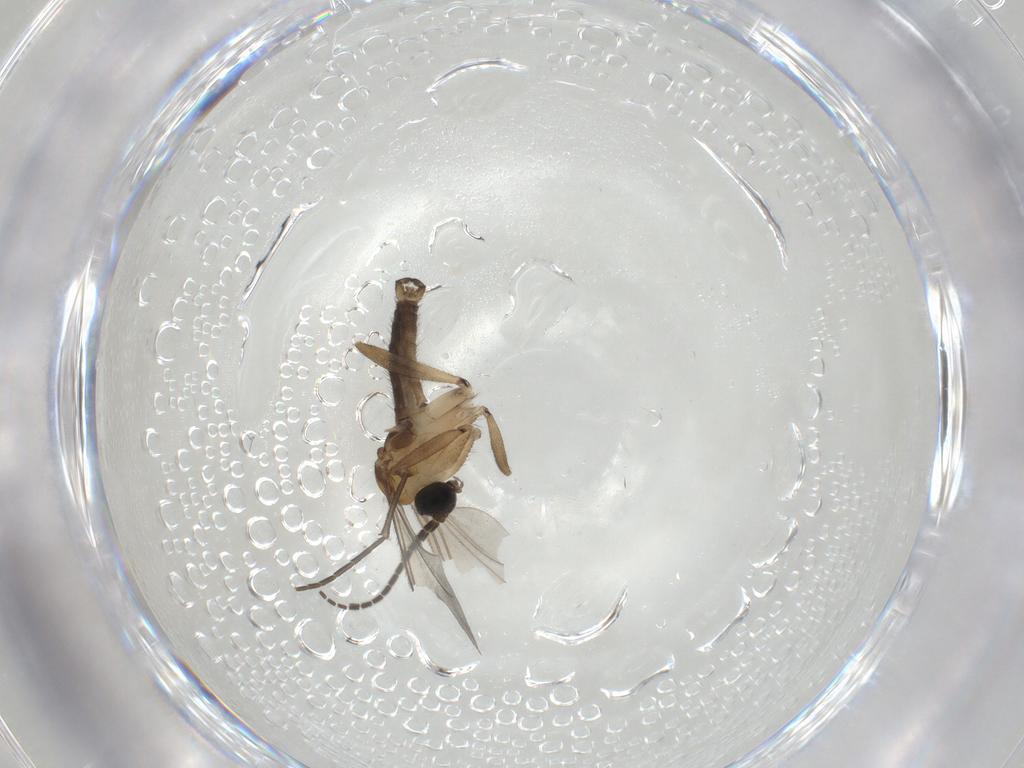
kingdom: Animalia
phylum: Arthropoda
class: Insecta
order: Diptera
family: Sciaridae
